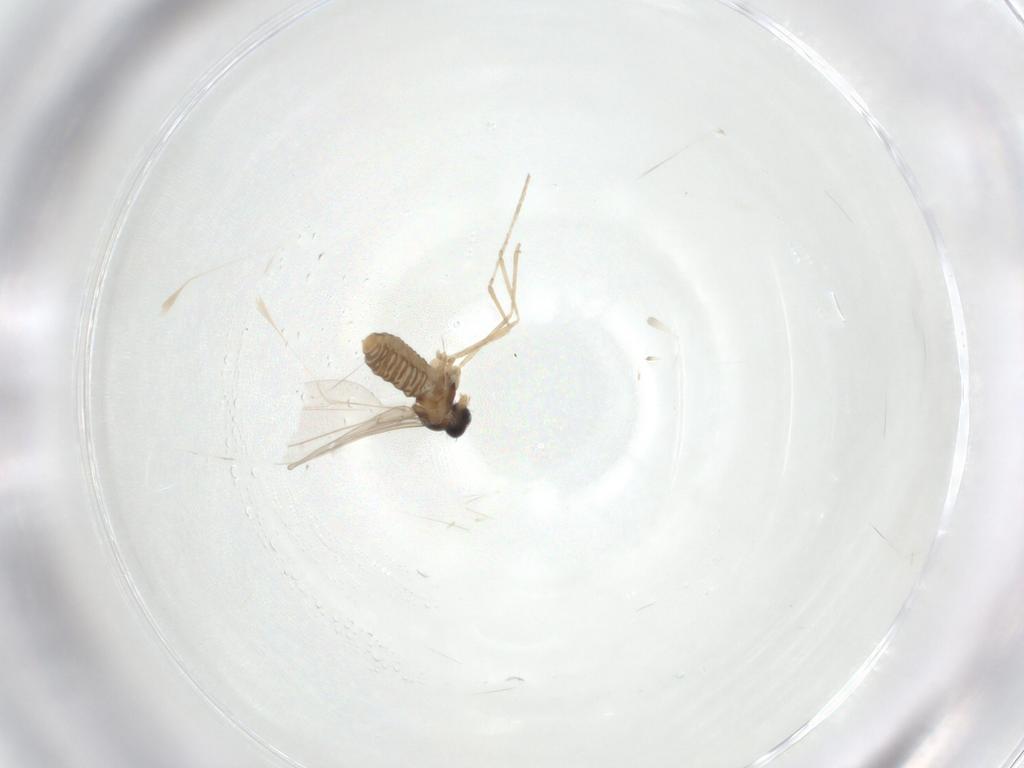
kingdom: Animalia
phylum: Arthropoda
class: Insecta
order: Diptera
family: Cecidomyiidae
